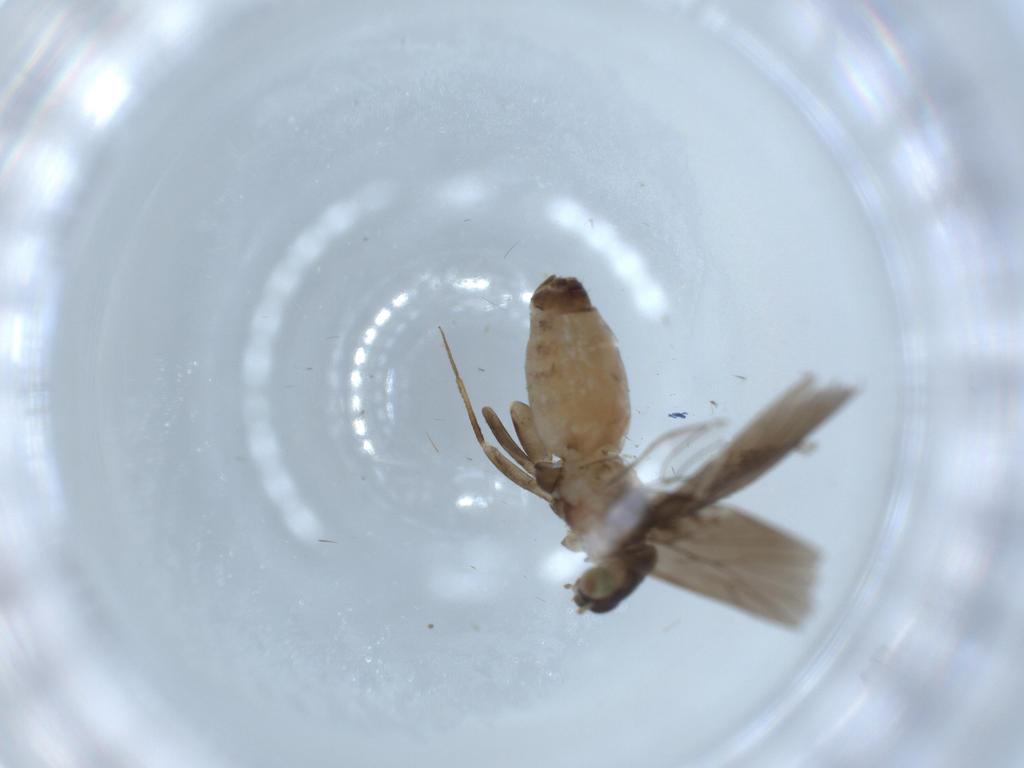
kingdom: Animalia
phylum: Arthropoda
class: Insecta
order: Psocodea
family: Lepidopsocidae
